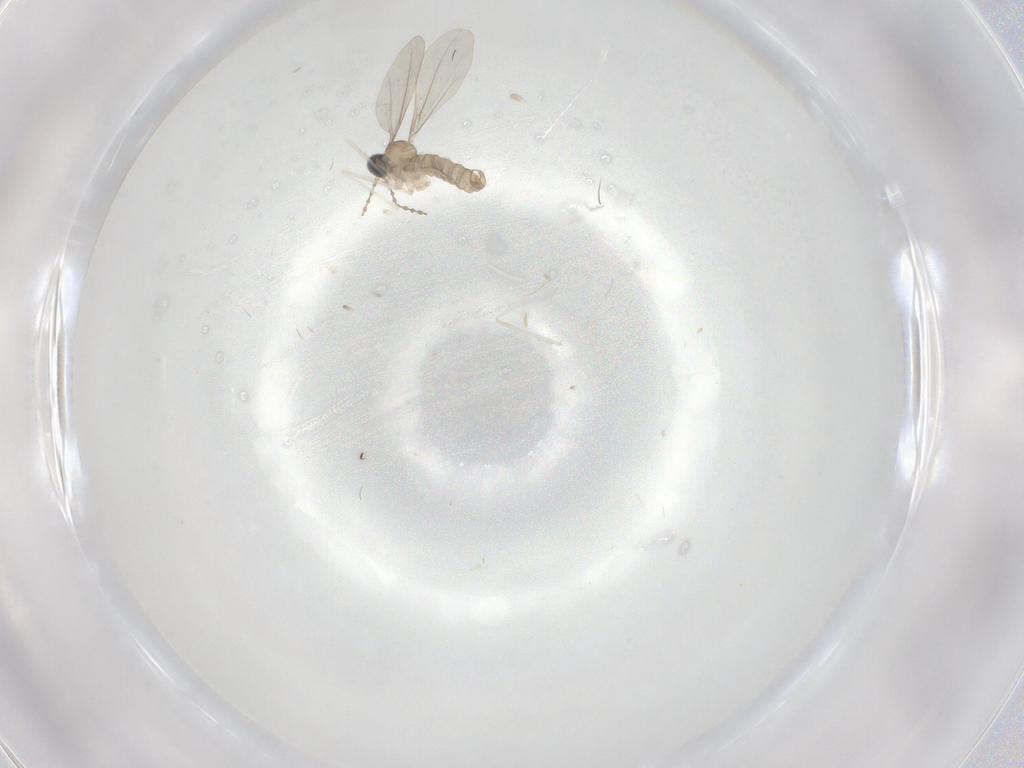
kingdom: Animalia
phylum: Arthropoda
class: Insecta
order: Diptera
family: Cecidomyiidae
